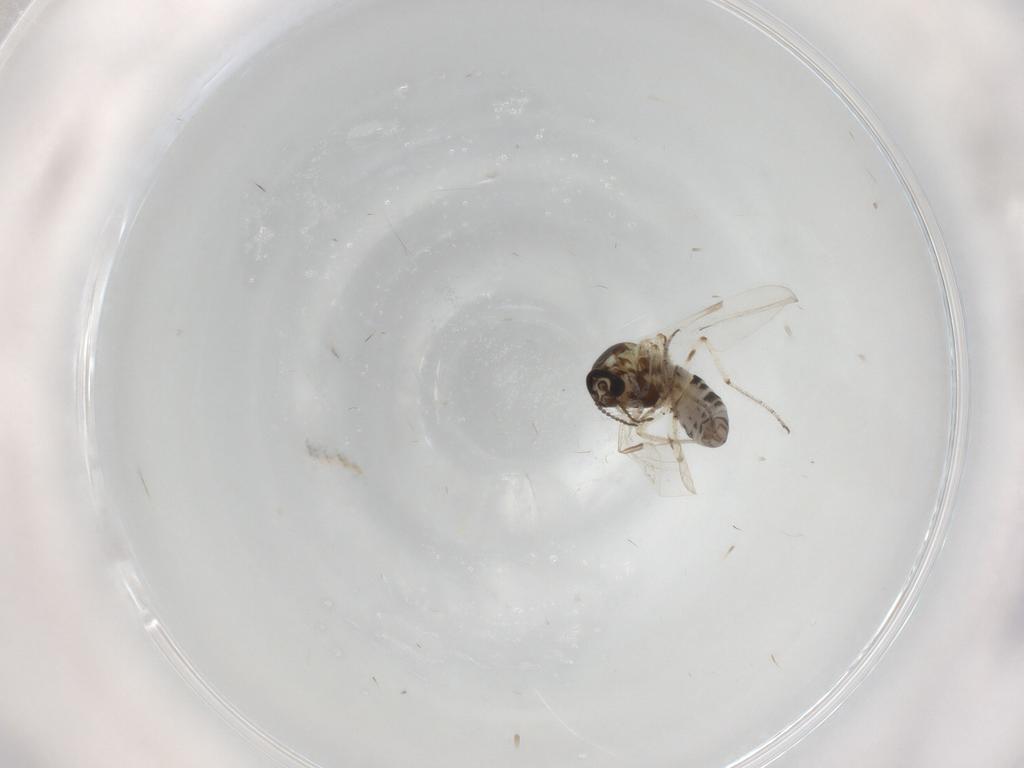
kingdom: Animalia
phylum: Arthropoda
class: Insecta
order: Diptera
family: Ceratopogonidae
